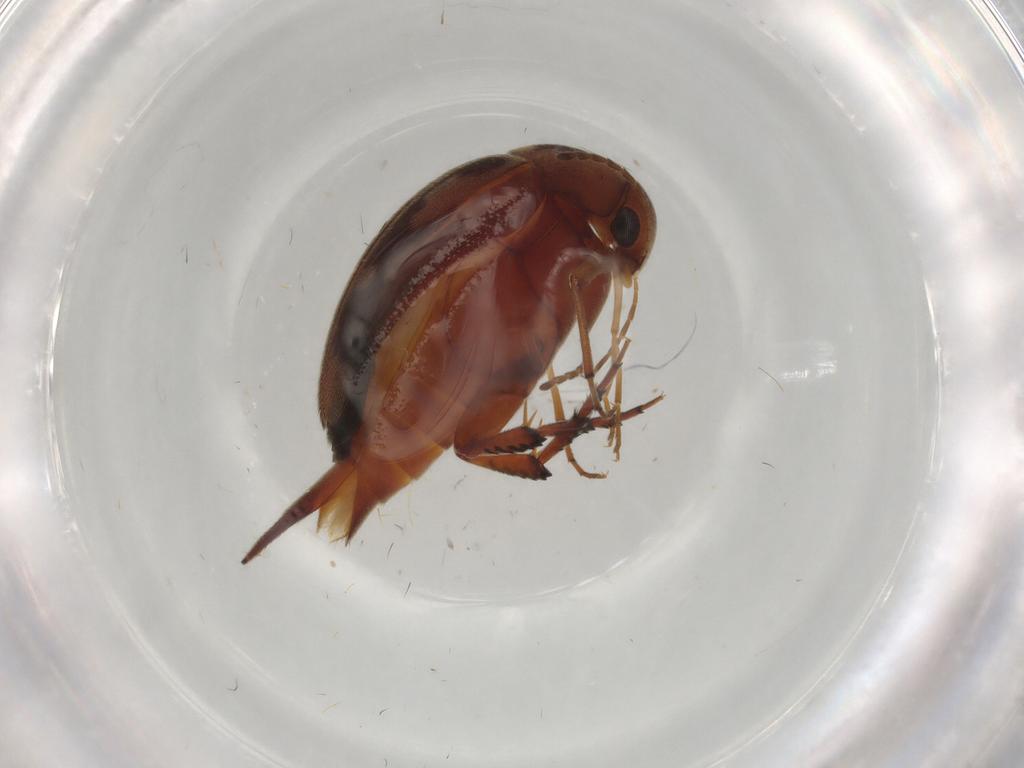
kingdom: Animalia
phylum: Arthropoda
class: Insecta
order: Coleoptera
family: Mordellidae
